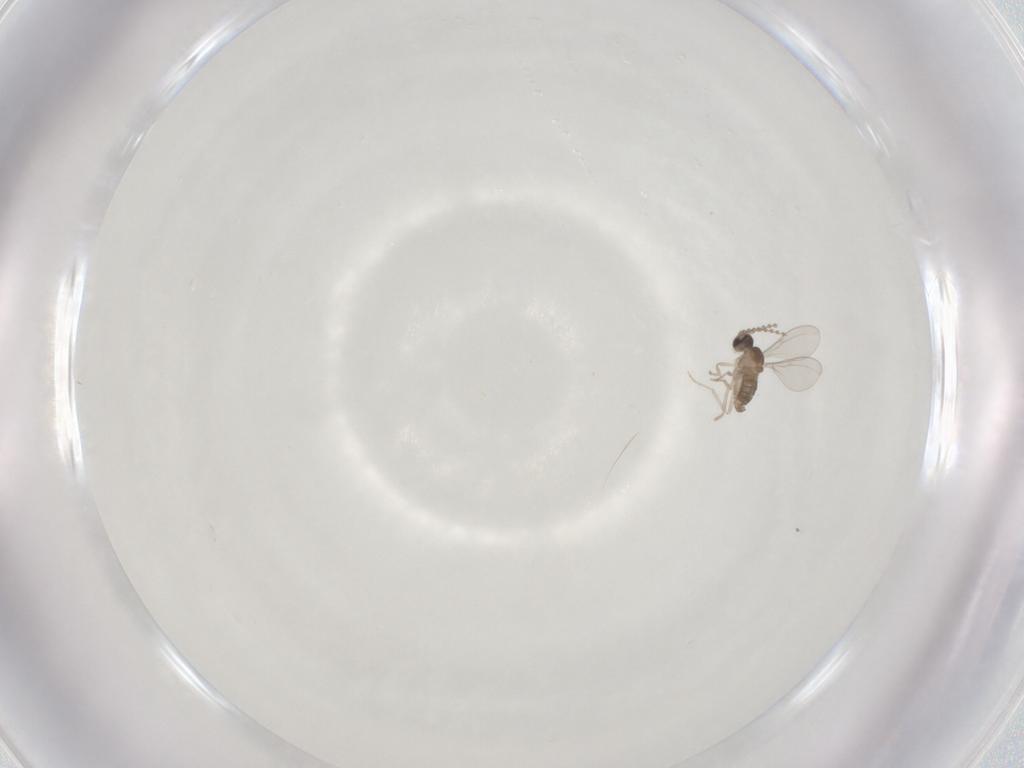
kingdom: Animalia
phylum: Arthropoda
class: Insecta
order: Diptera
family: Cecidomyiidae
